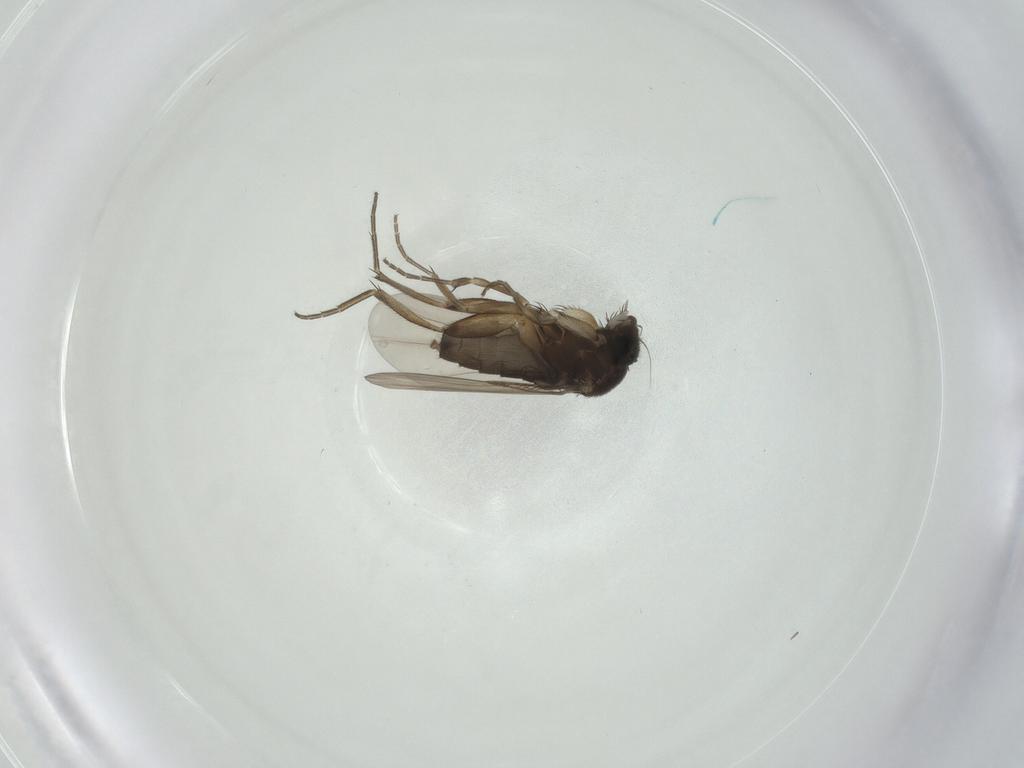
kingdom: Animalia
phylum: Arthropoda
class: Insecta
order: Diptera
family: Phoridae
